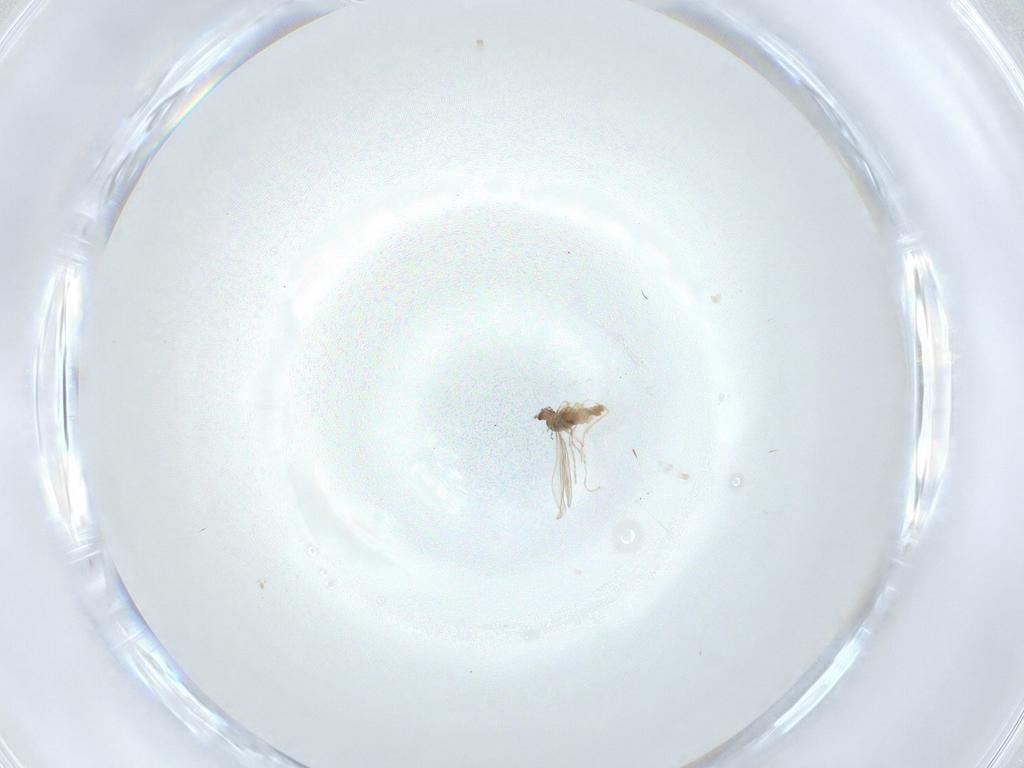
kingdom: Animalia
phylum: Arthropoda
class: Insecta
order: Diptera
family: Cecidomyiidae
